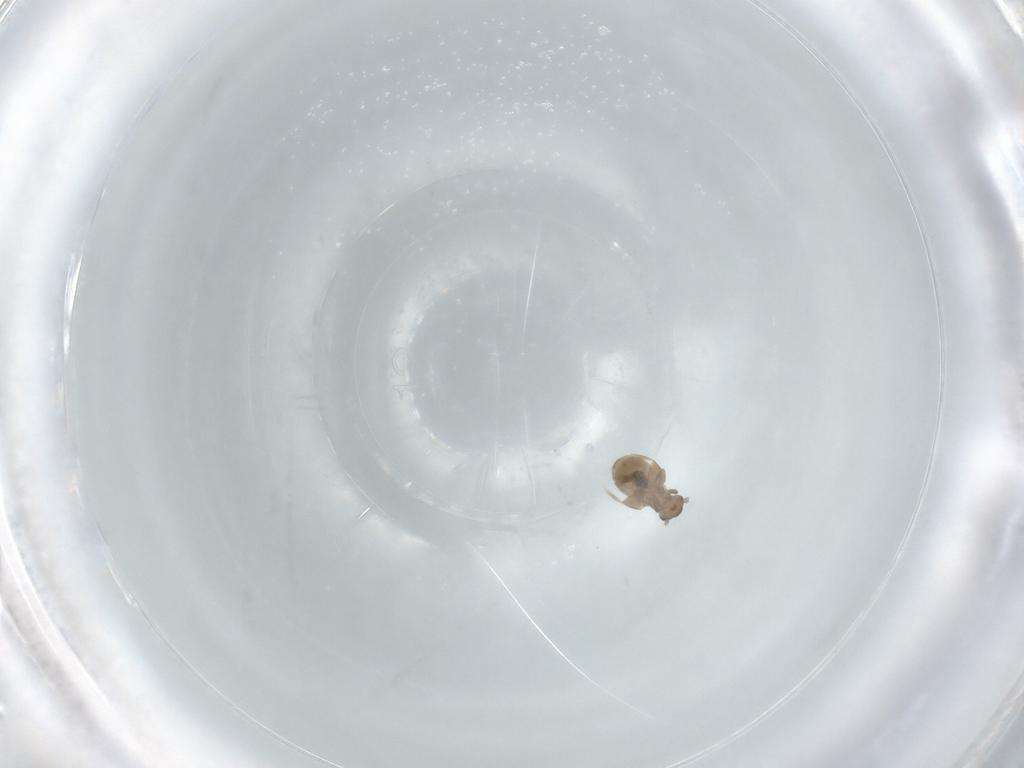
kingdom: Animalia
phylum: Arthropoda
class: Insecta
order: Psocodea
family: Liposcelididae
